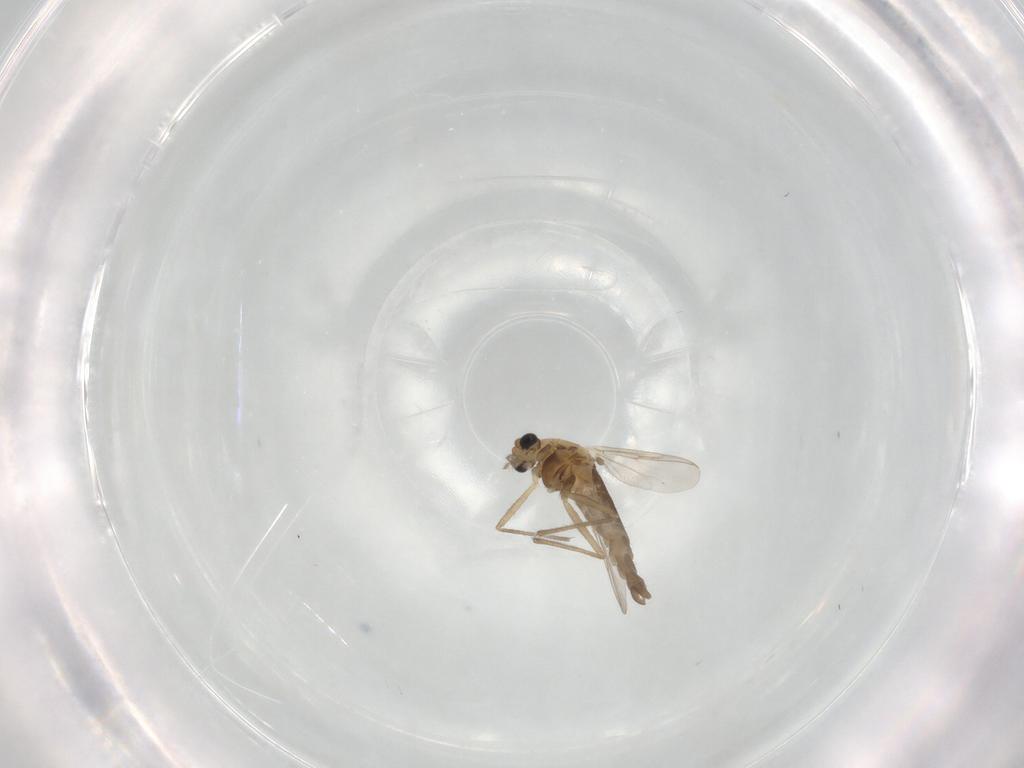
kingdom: Animalia
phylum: Arthropoda
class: Insecta
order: Diptera
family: Chironomidae
